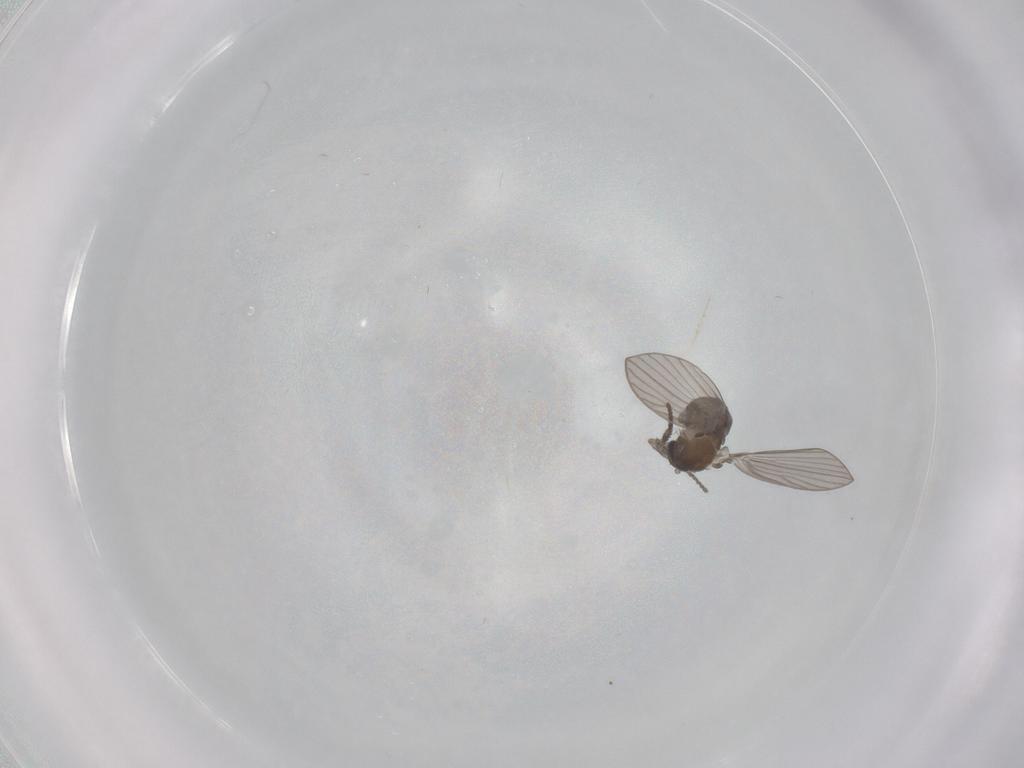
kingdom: Animalia
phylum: Arthropoda
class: Insecta
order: Diptera
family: Psychodidae
